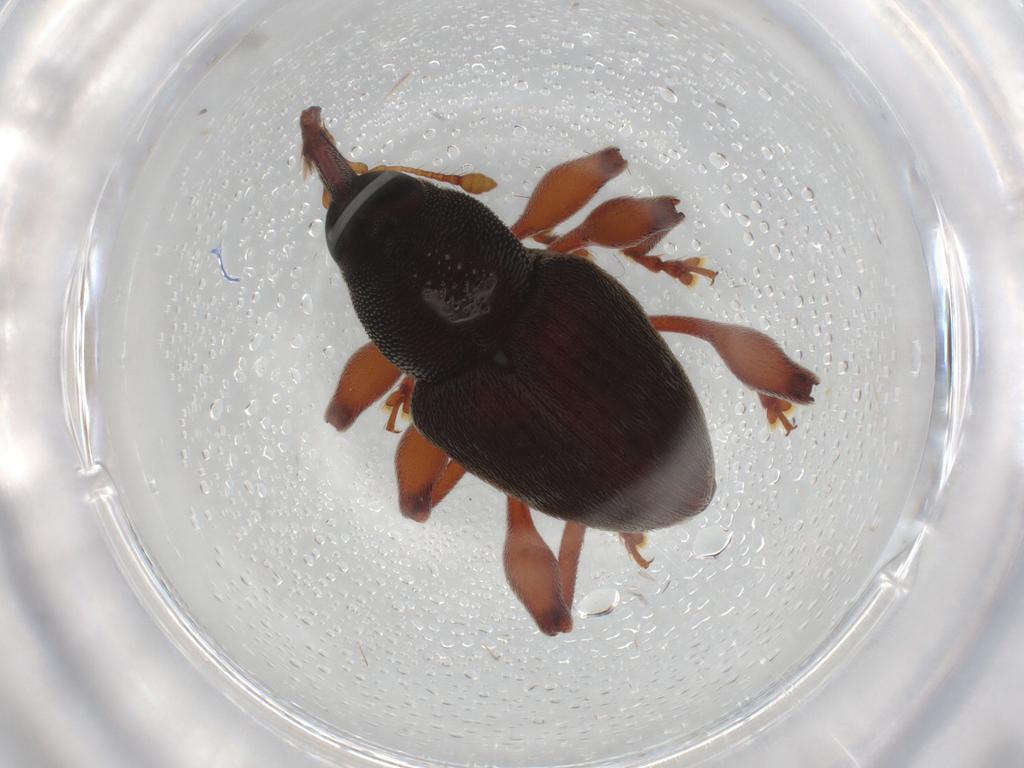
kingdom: Animalia
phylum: Arthropoda
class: Insecta
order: Coleoptera
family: Curculionidae
